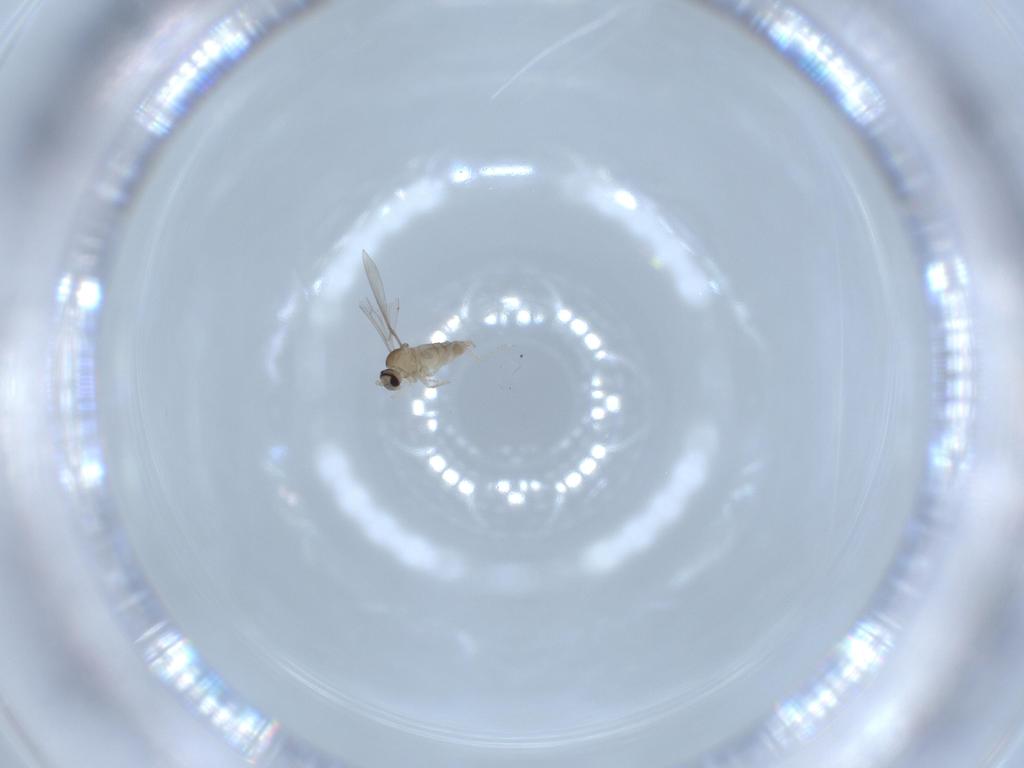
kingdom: Animalia
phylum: Arthropoda
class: Insecta
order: Diptera
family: Cecidomyiidae
